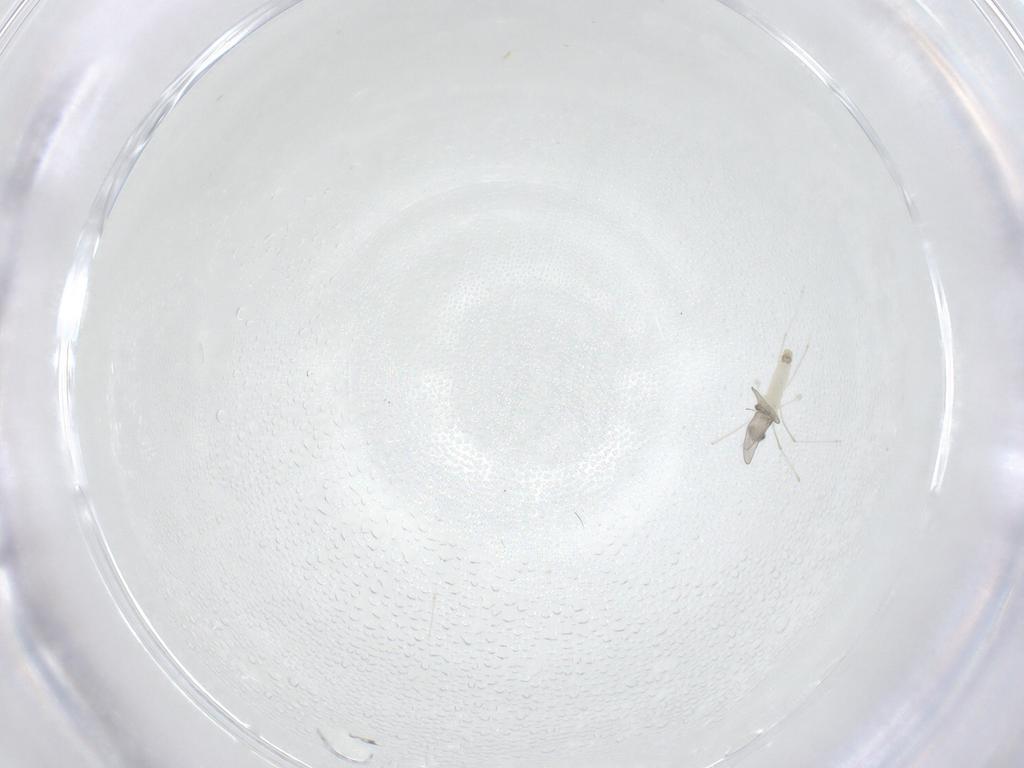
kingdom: Animalia
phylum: Arthropoda
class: Insecta
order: Diptera
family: Cecidomyiidae
